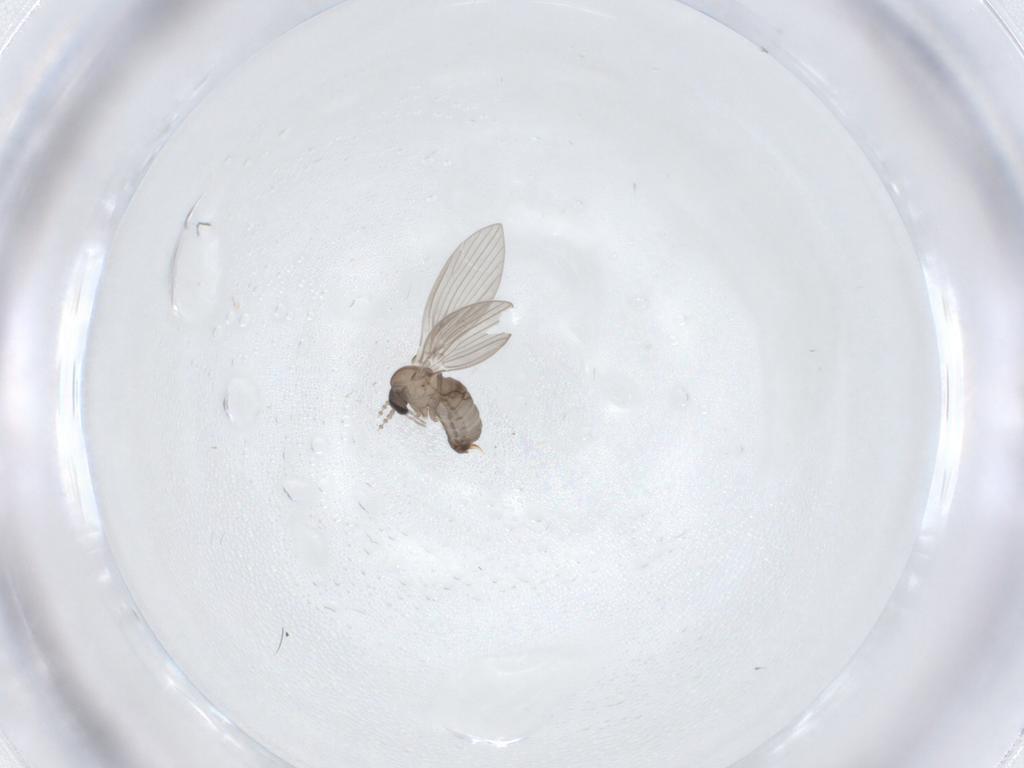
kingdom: Animalia
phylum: Arthropoda
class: Insecta
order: Diptera
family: Psychodidae
